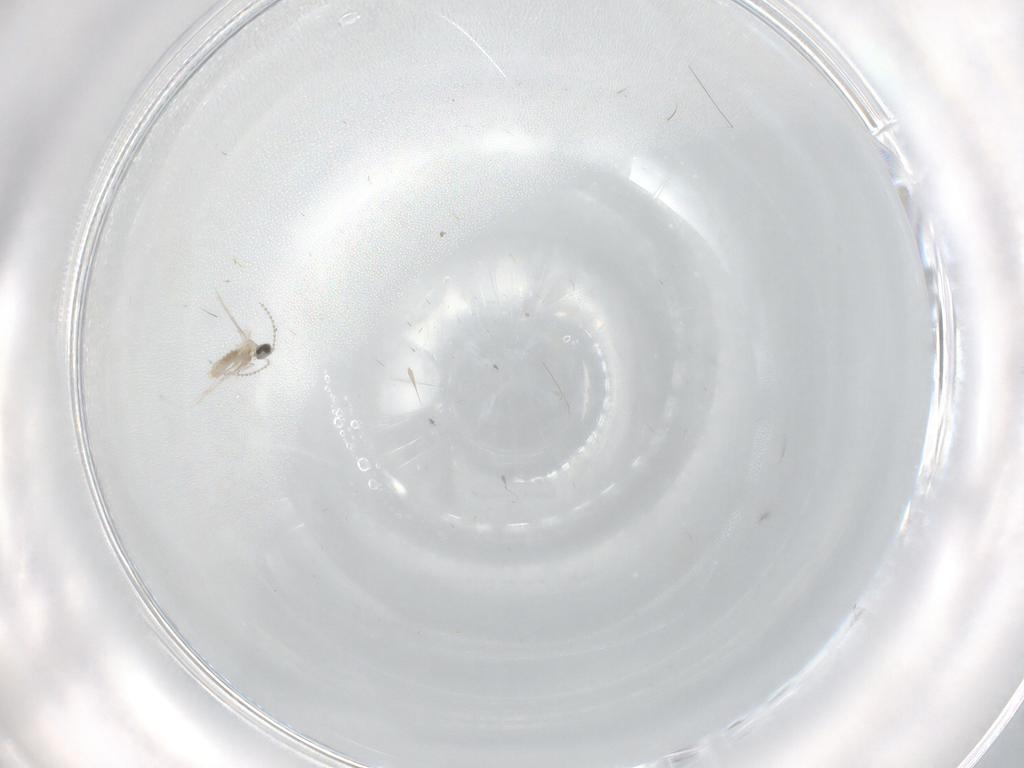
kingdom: Animalia
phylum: Arthropoda
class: Insecta
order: Diptera
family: Cecidomyiidae
